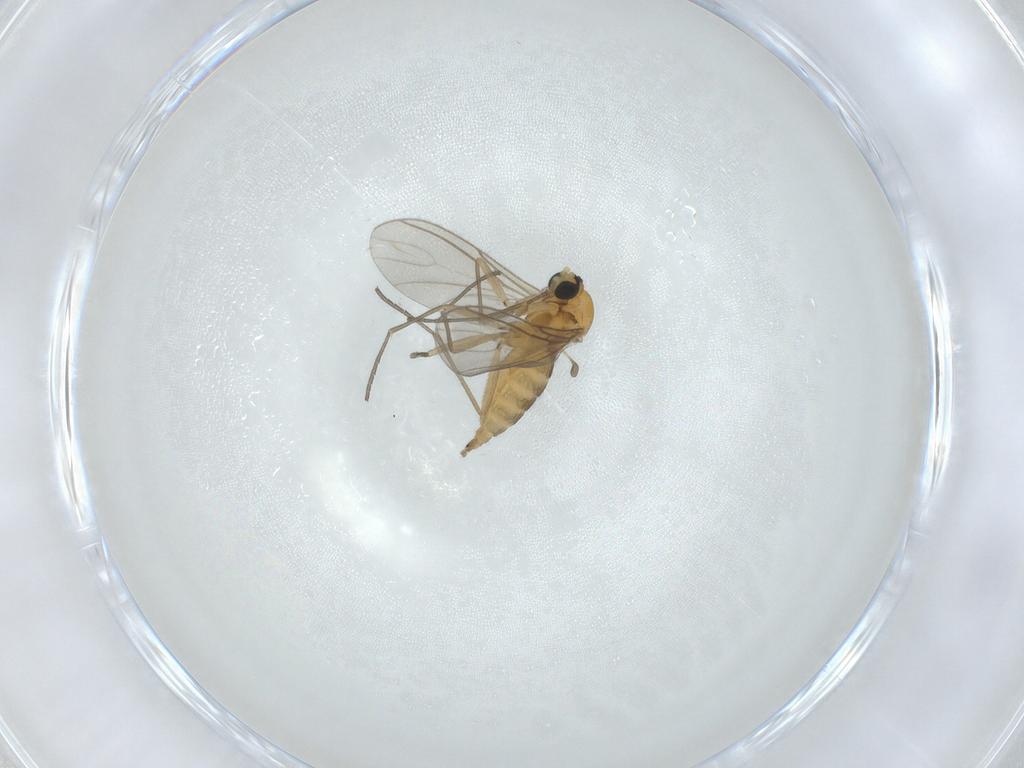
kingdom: Animalia
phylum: Arthropoda
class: Insecta
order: Diptera
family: Sciaridae
